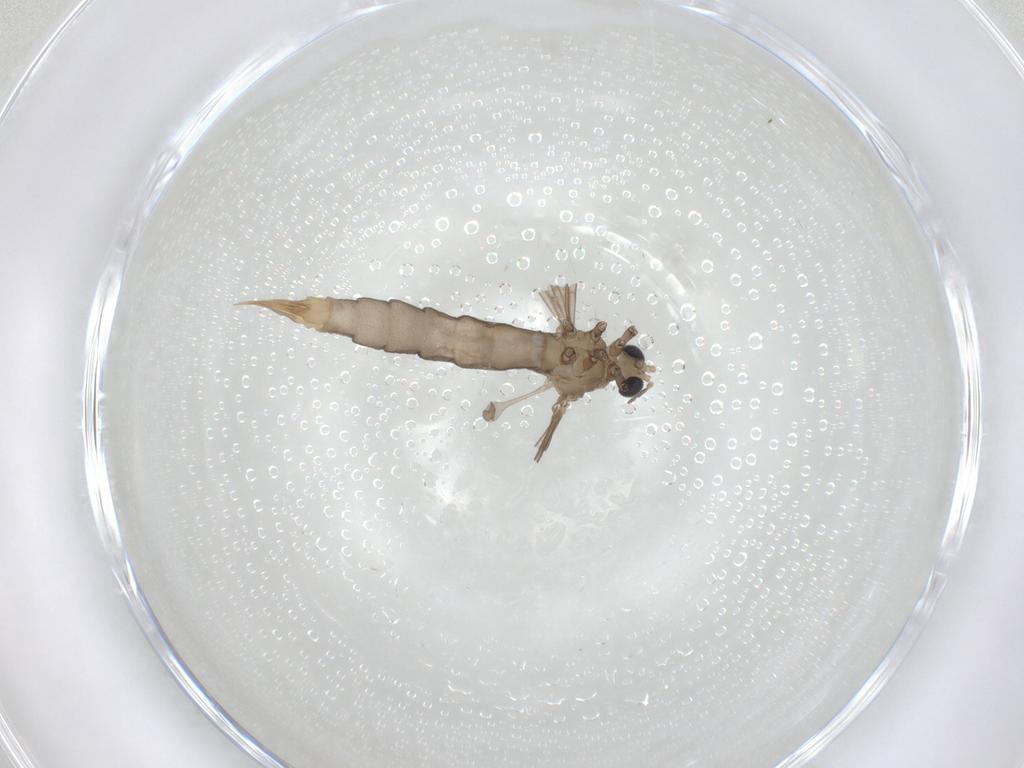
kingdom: Animalia
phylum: Arthropoda
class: Insecta
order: Diptera
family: Limoniidae
